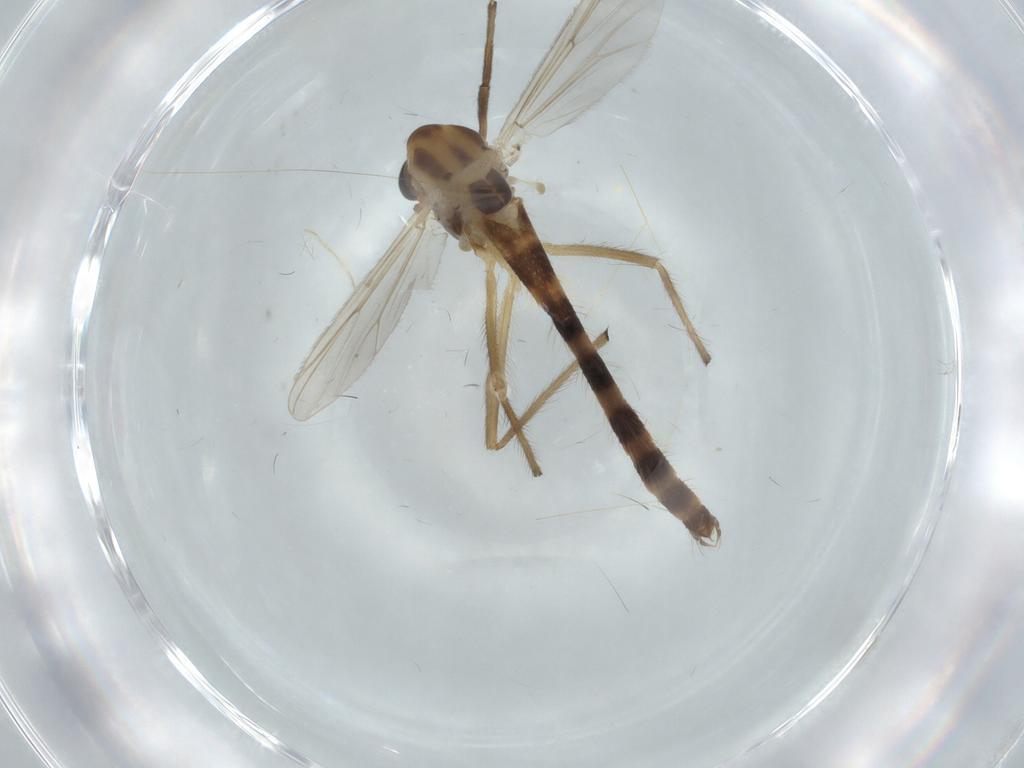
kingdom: Animalia
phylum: Arthropoda
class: Insecta
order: Diptera
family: Chironomidae
